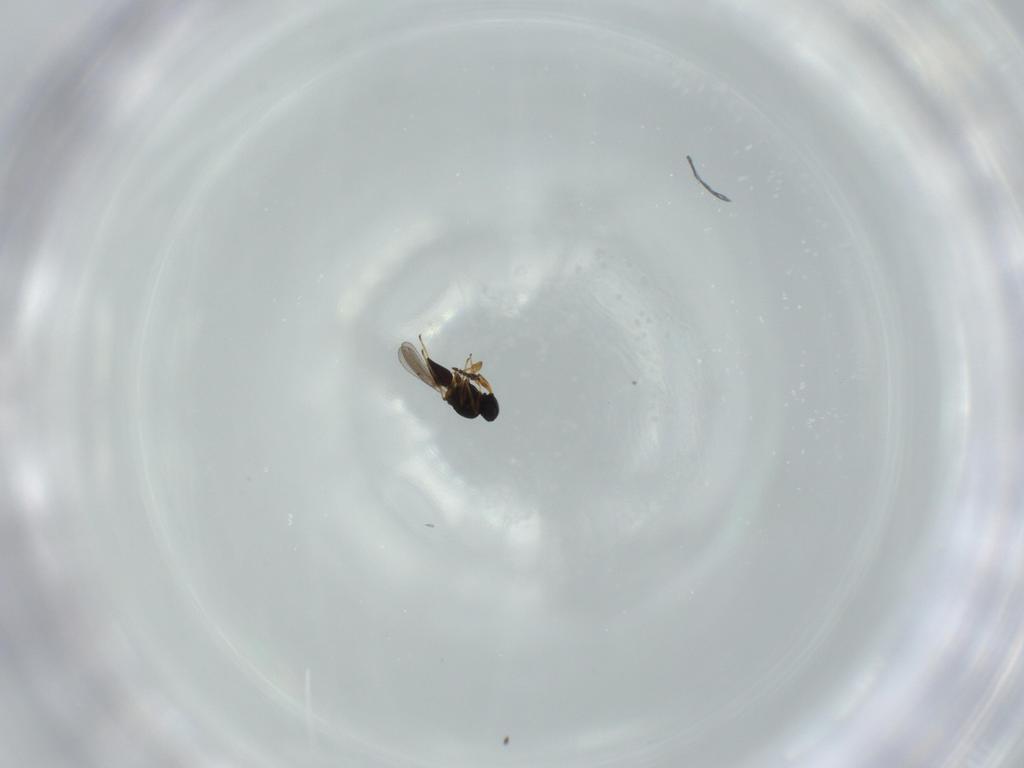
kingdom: Animalia
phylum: Arthropoda
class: Insecta
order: Hymenoptera
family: Platygastridae
